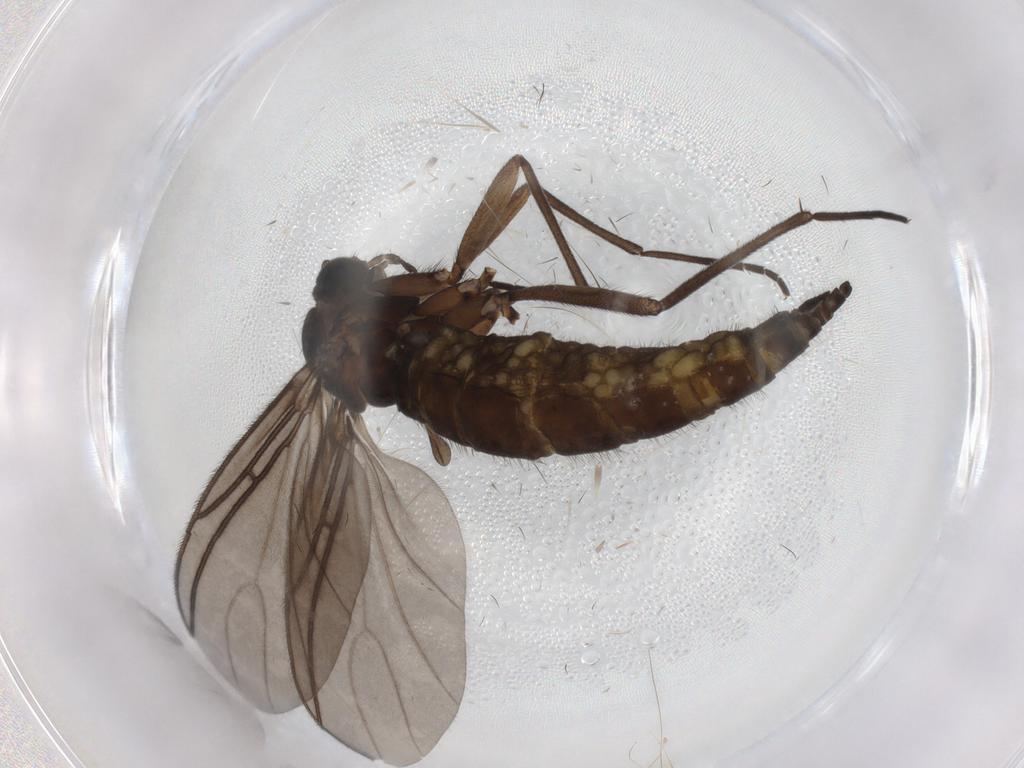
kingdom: Animalia
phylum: Arthropoda
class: Insecta
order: Diptera
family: Sciaridae
